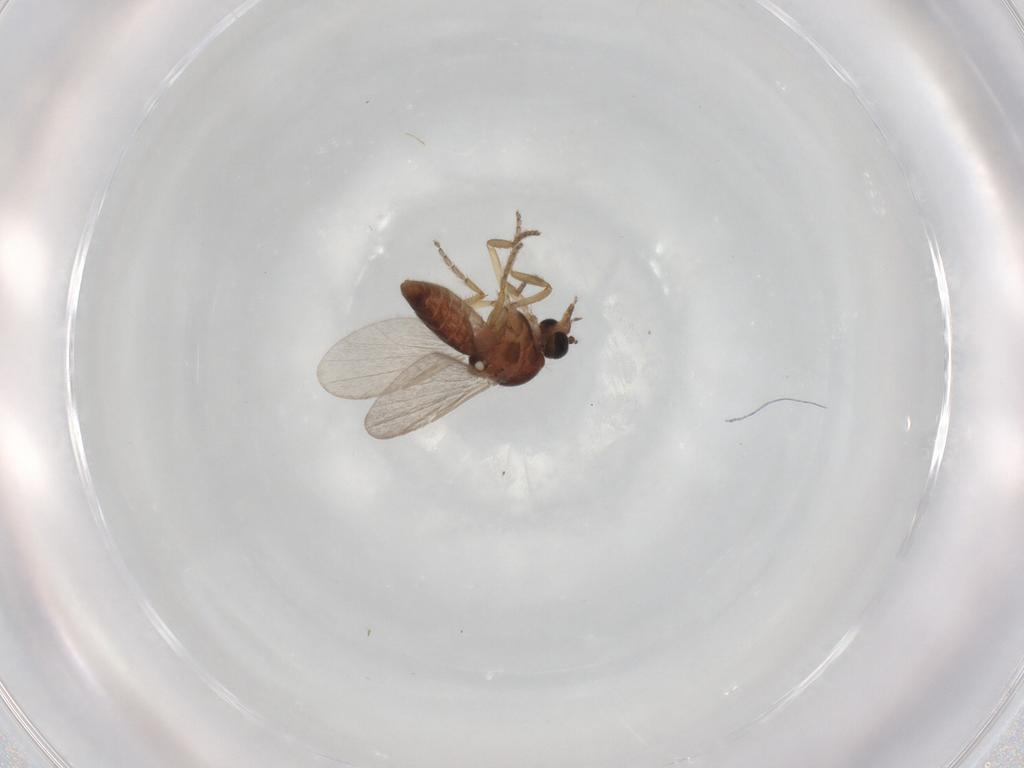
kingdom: Animalia
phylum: Arthropoda
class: Insecta
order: Diptera
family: Ceratopogonidae
